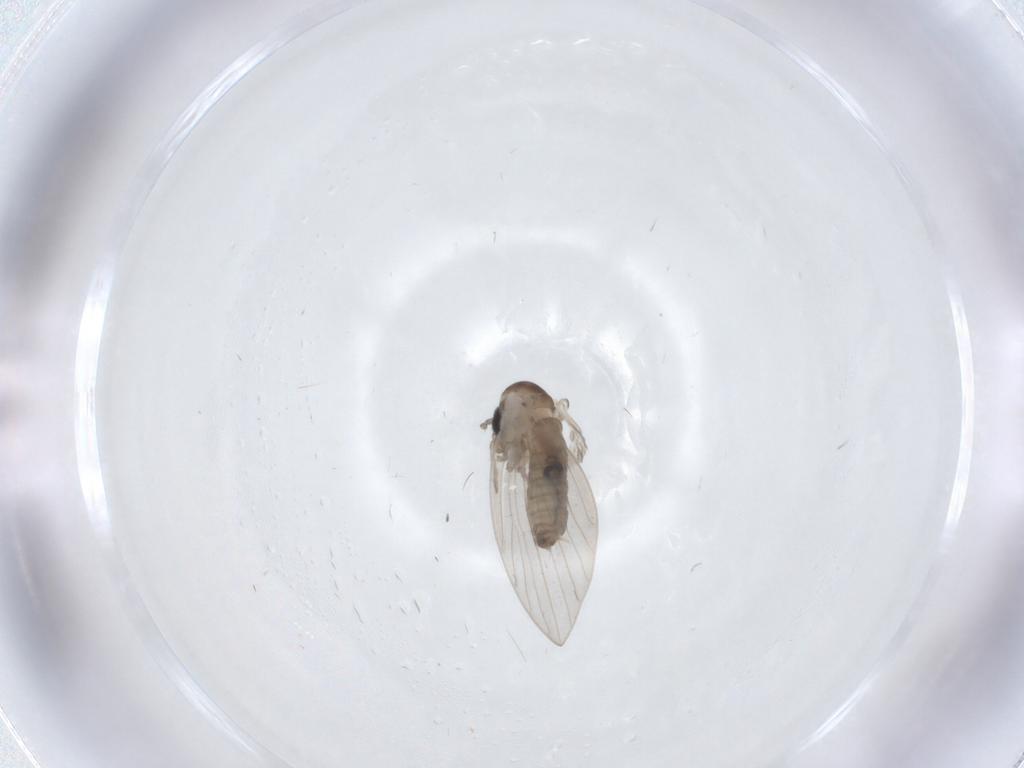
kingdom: Animalia
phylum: Arthropoda
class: Insecta
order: Diptera
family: Psychodidae
